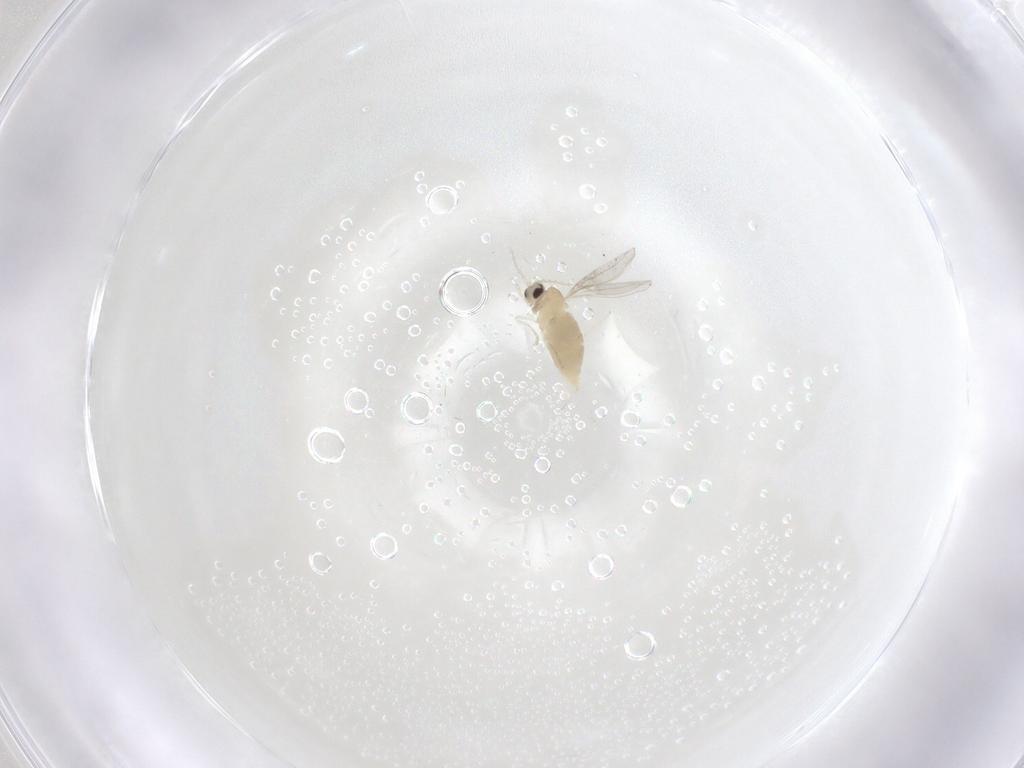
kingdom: Animalia
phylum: Arthropoda
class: Insecta
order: Diptera
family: Cecidomyiidae
